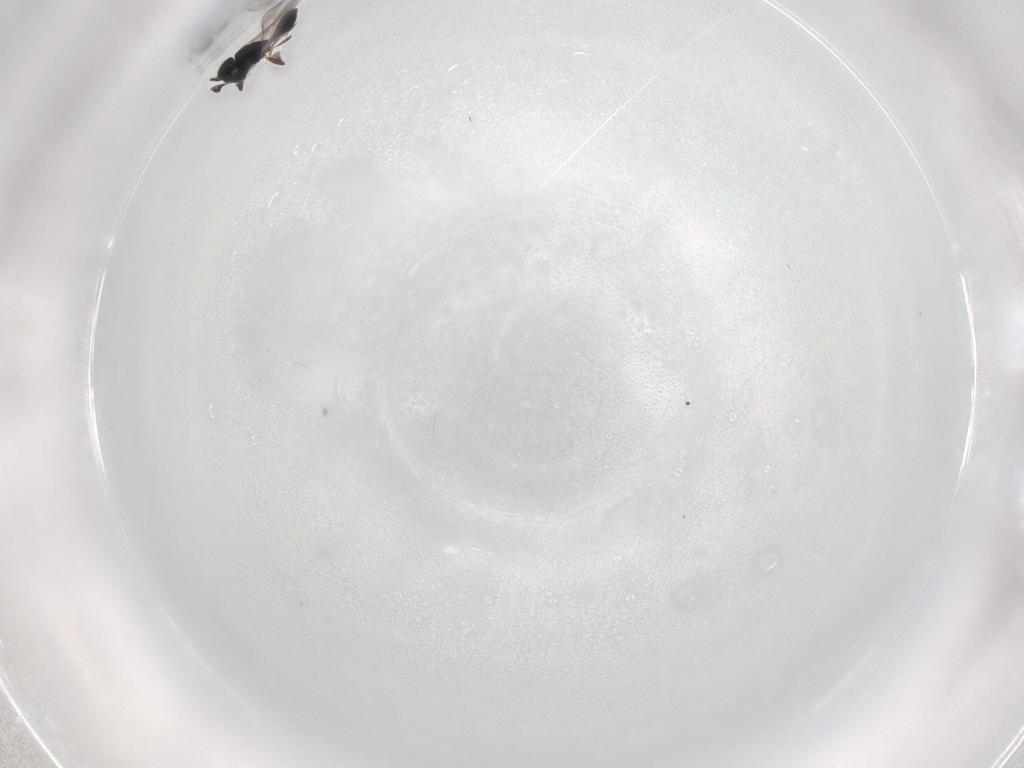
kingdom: Animalia
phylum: Arthropoda
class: Insecta
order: Hymenoptera
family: Scelionidae
